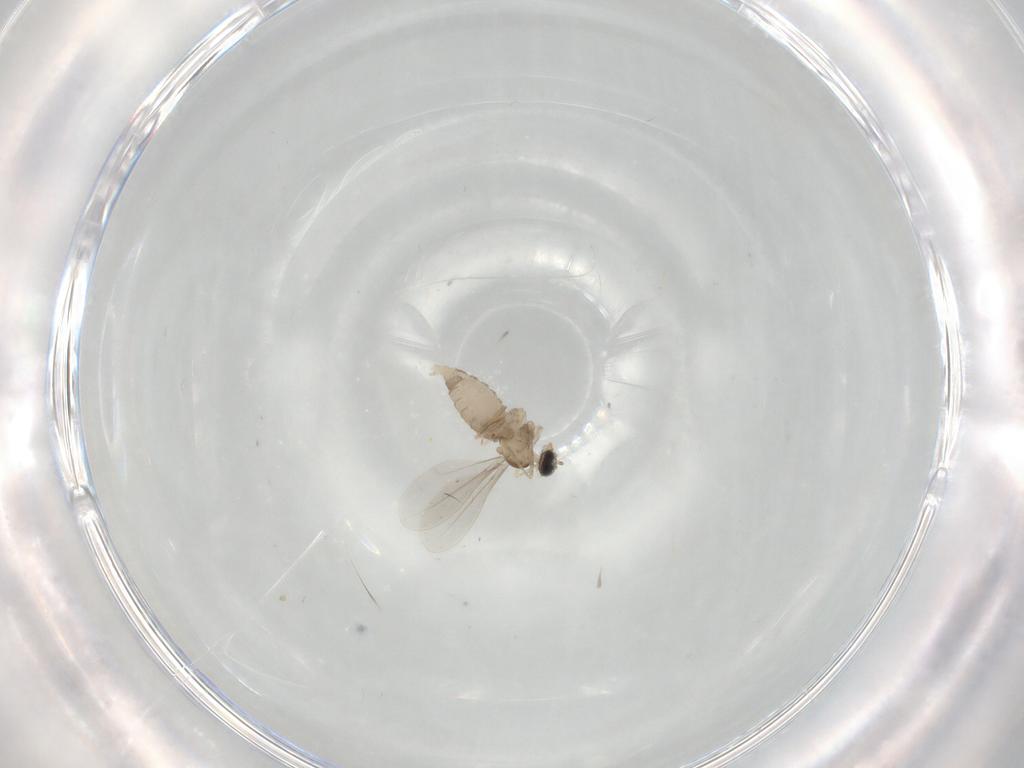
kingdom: Animalia
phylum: Arthropoda
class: Insecta
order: Diptera
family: Cecidomyiidae
